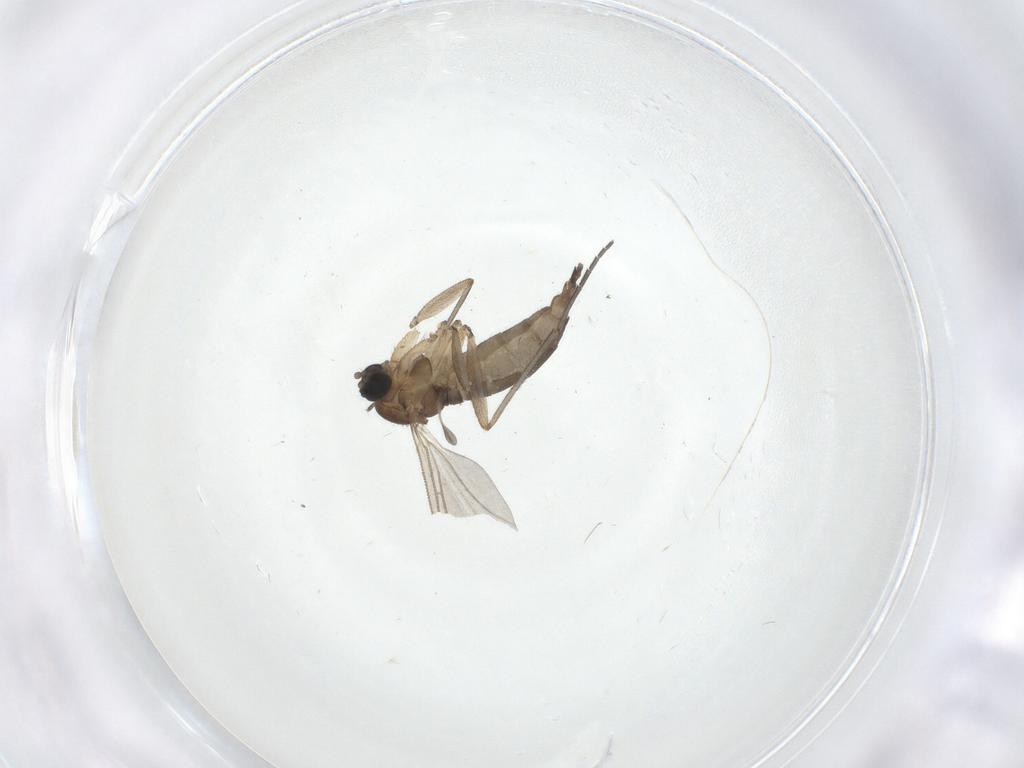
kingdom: Animalia
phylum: Arthropoda
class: Insecta
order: Diptera
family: Sciaridae
